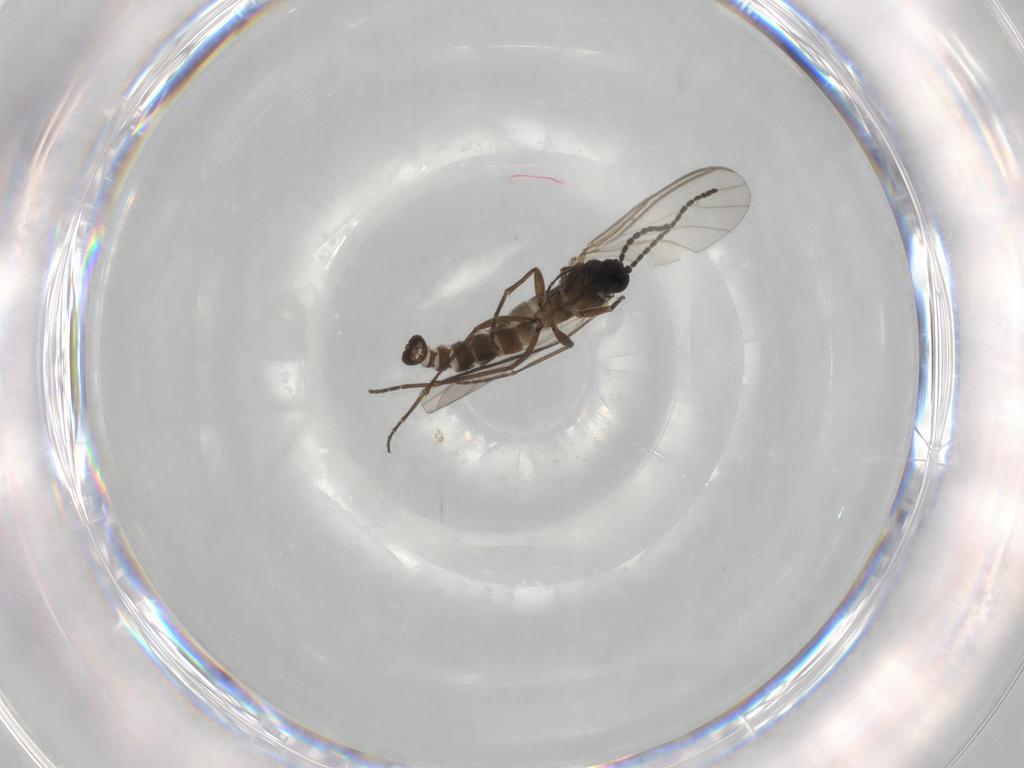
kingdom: Animalia
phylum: Arthropoda
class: Insecta
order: Diptera
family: Sciaridae
